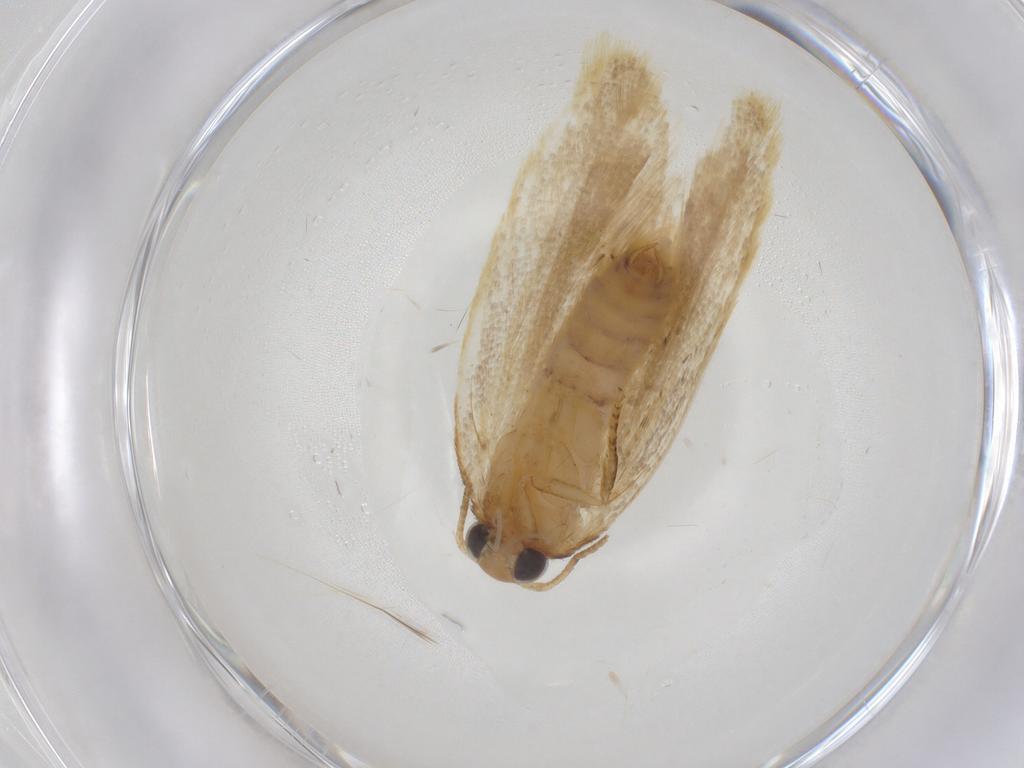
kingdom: Animalia
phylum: Arthropoda
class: Insecta
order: Lepidoptera
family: Peleopodidae
